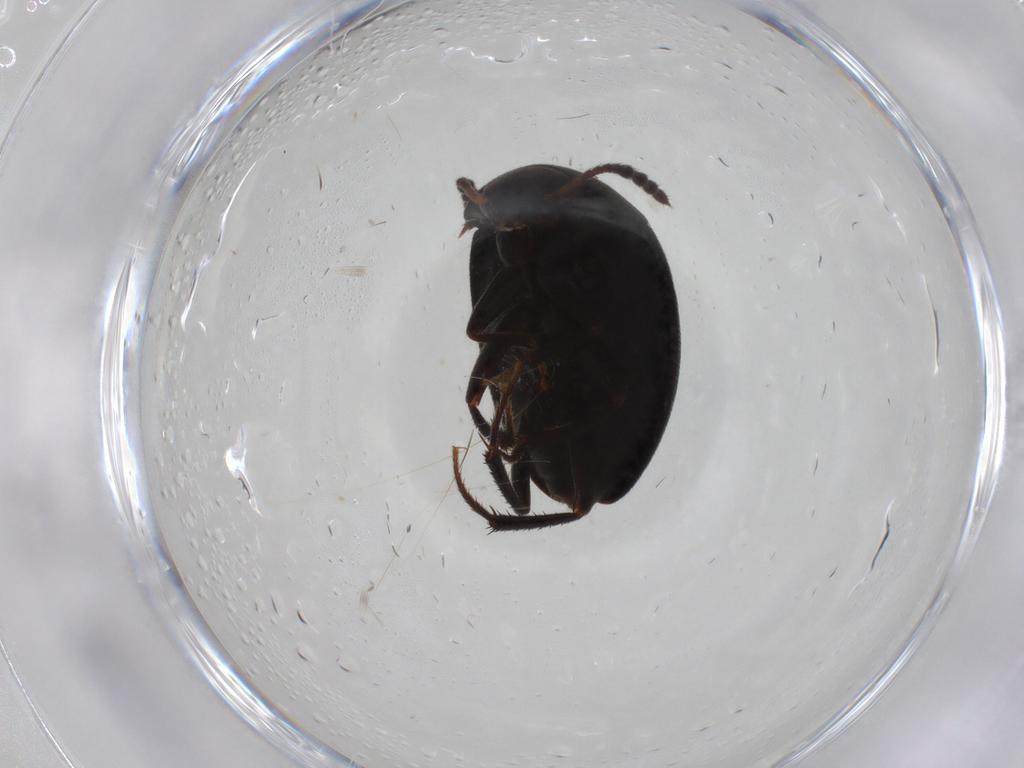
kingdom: Animalia
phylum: Arthropoda
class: Insecta
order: Coleoptera
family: Leiodidae
